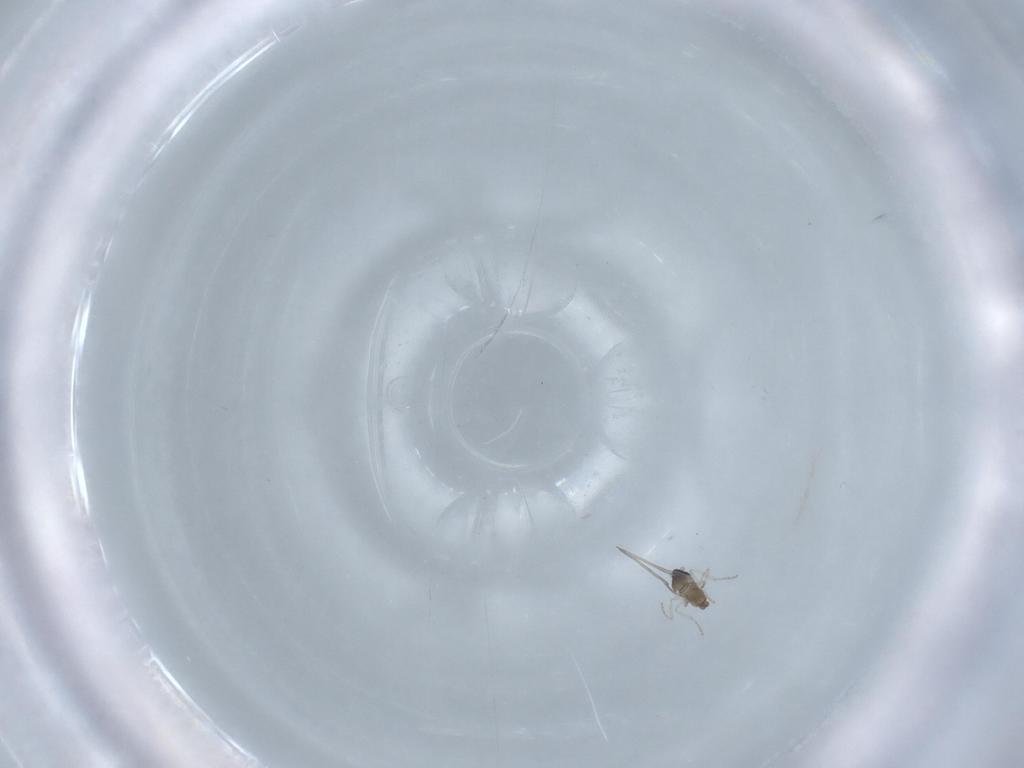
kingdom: Animalia
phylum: Arthropoda
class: Insecta
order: Diptera
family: Cecidomyiidae
